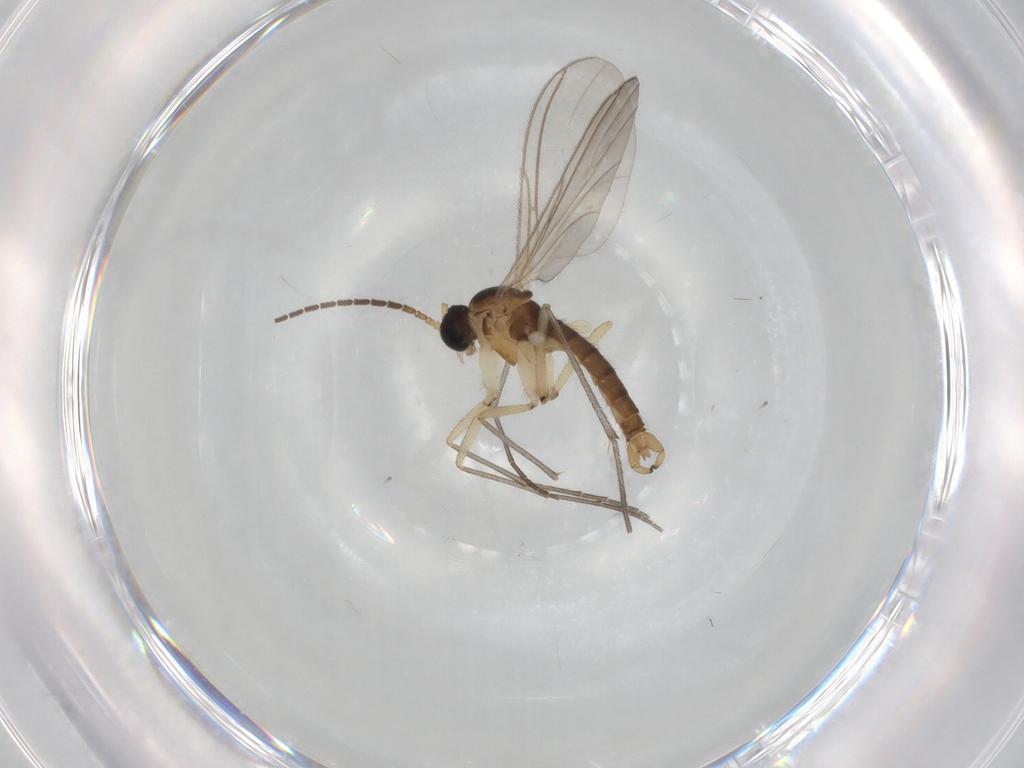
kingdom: Animalia
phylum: Arthropoda
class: Insecta
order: Diptera
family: Sciaridae
